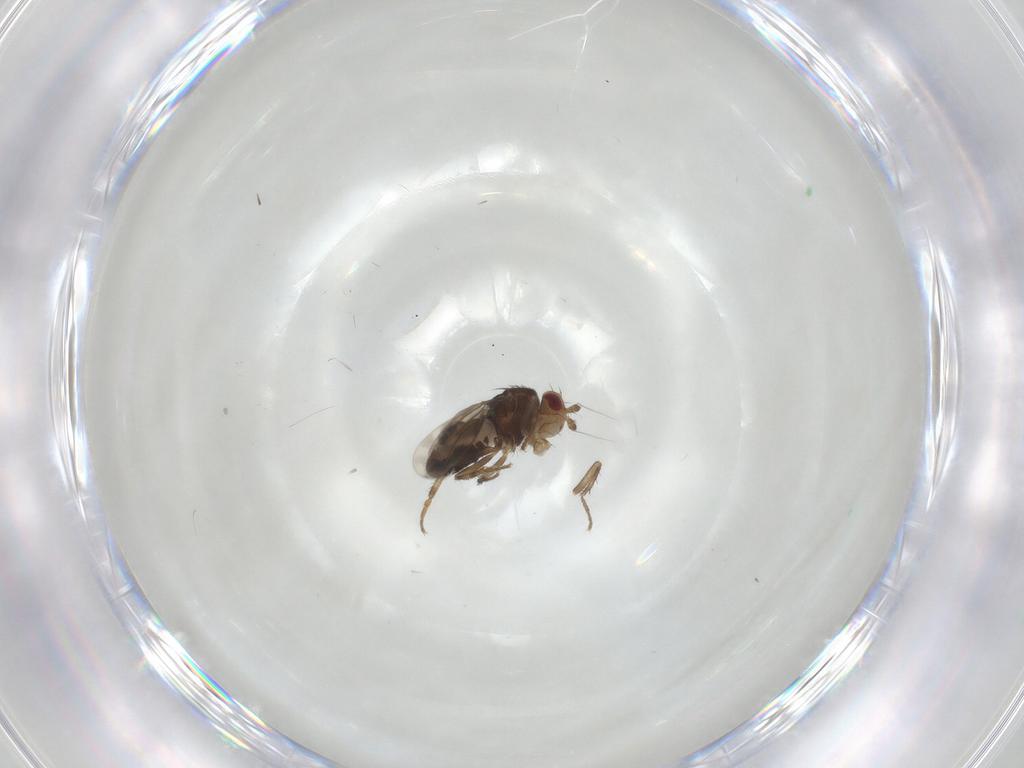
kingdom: Animalia
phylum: Arthropoda
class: Insecta
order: Diptera
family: Sphaeroceridae
